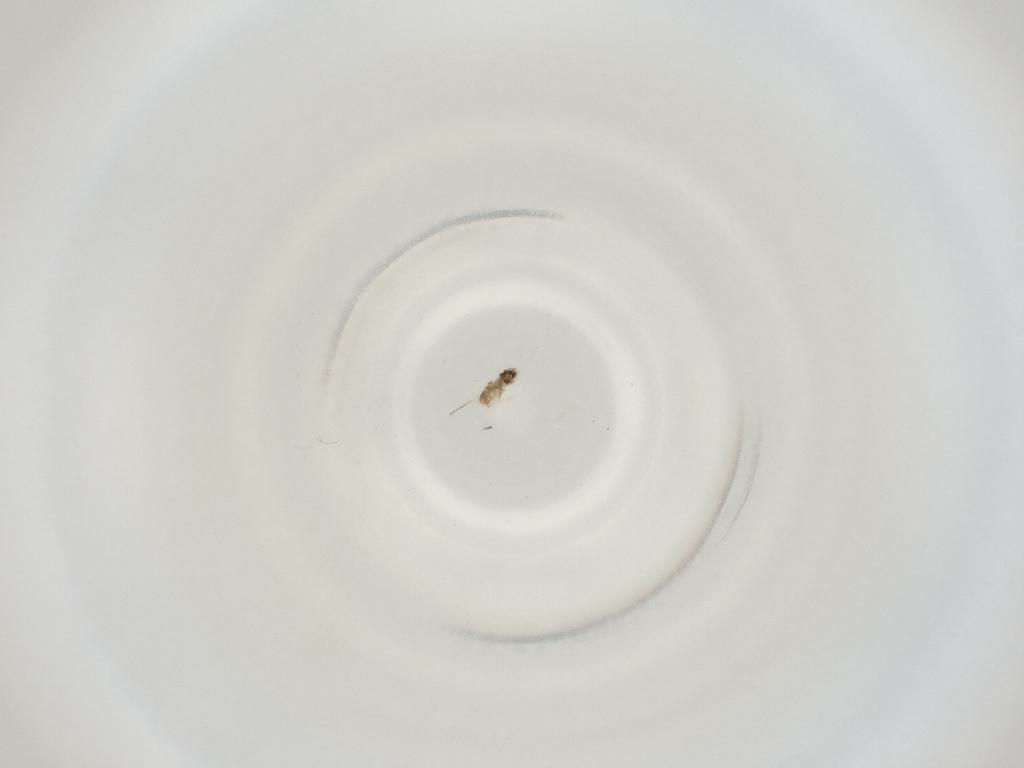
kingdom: Animalia
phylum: Arthropoda
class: Insecta
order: Diptera
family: Cecidomyiidae
